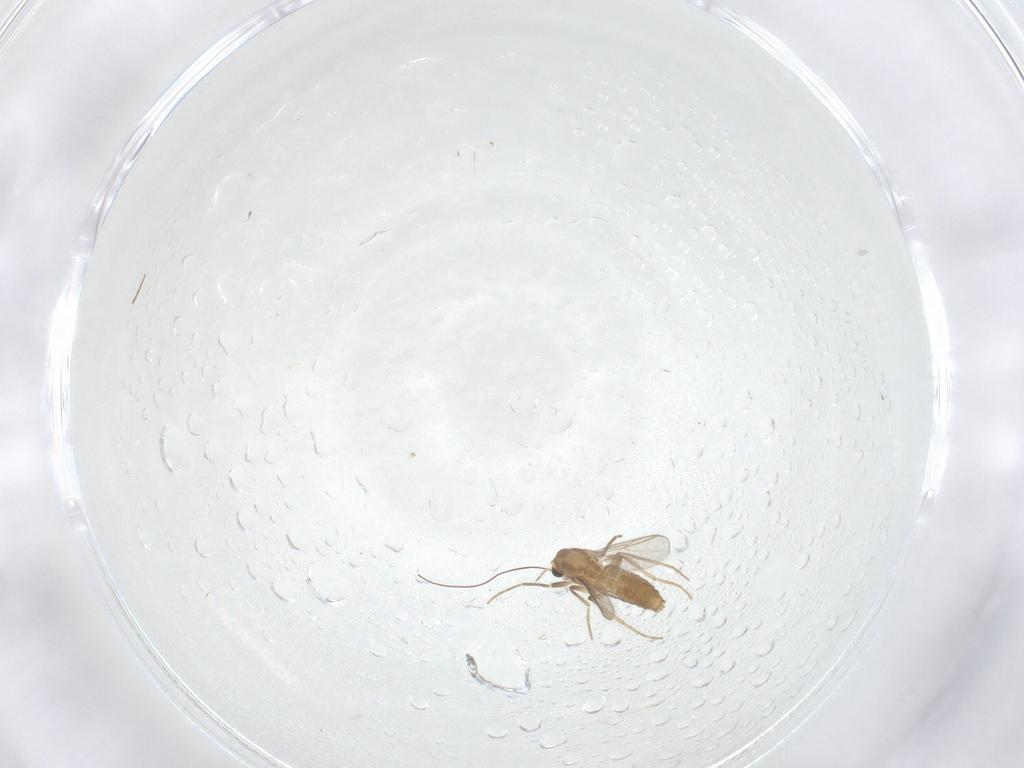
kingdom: Animalia
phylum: Arthropoda
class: Insecta
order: Diptera
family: Chironomidae
